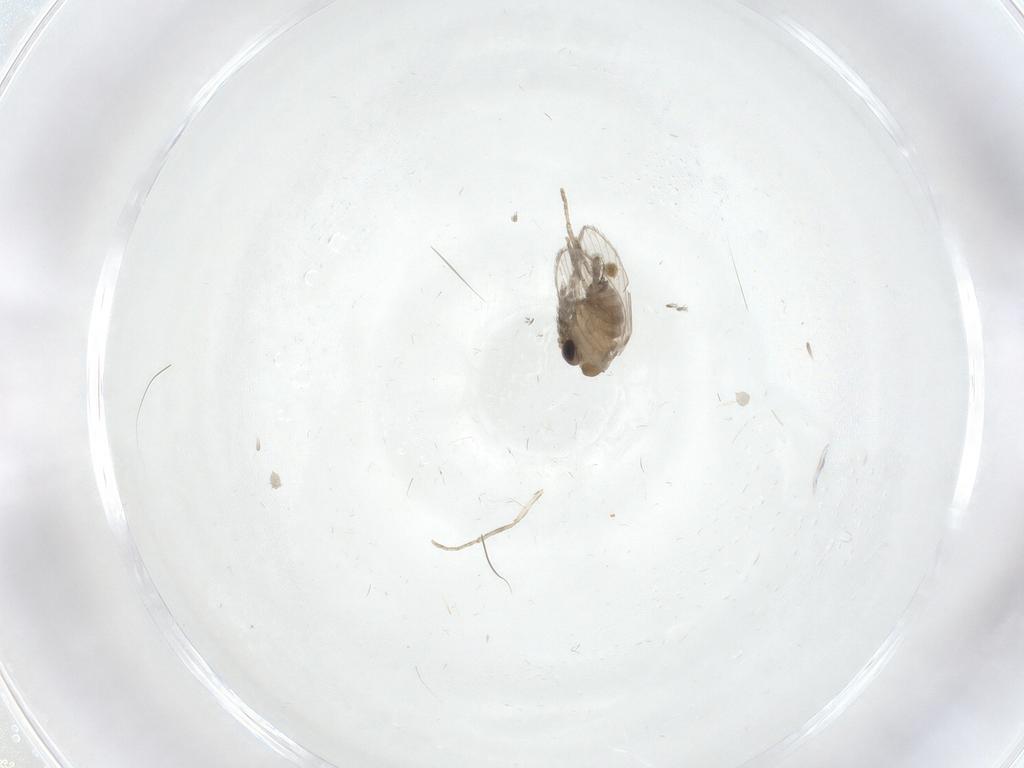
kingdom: Animalia
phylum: Arthropoda
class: Insecta
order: Diptera
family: Psychodidae
